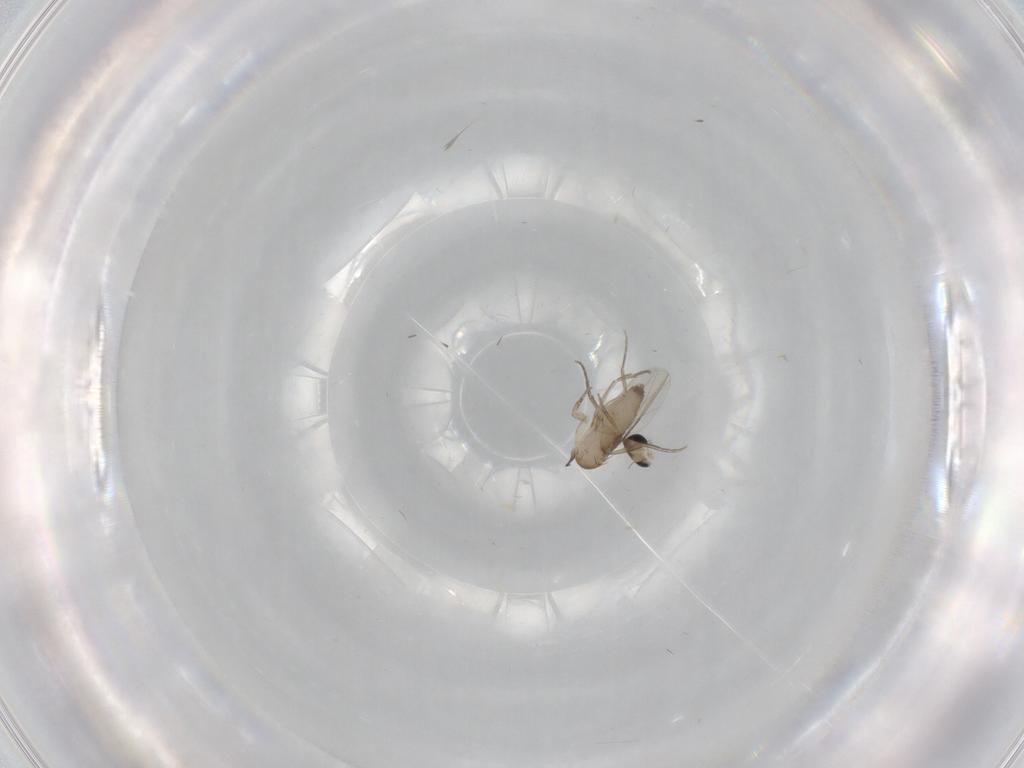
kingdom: Animalia
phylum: Arthropoda
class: Insecta
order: Diptera
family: Phoridae
